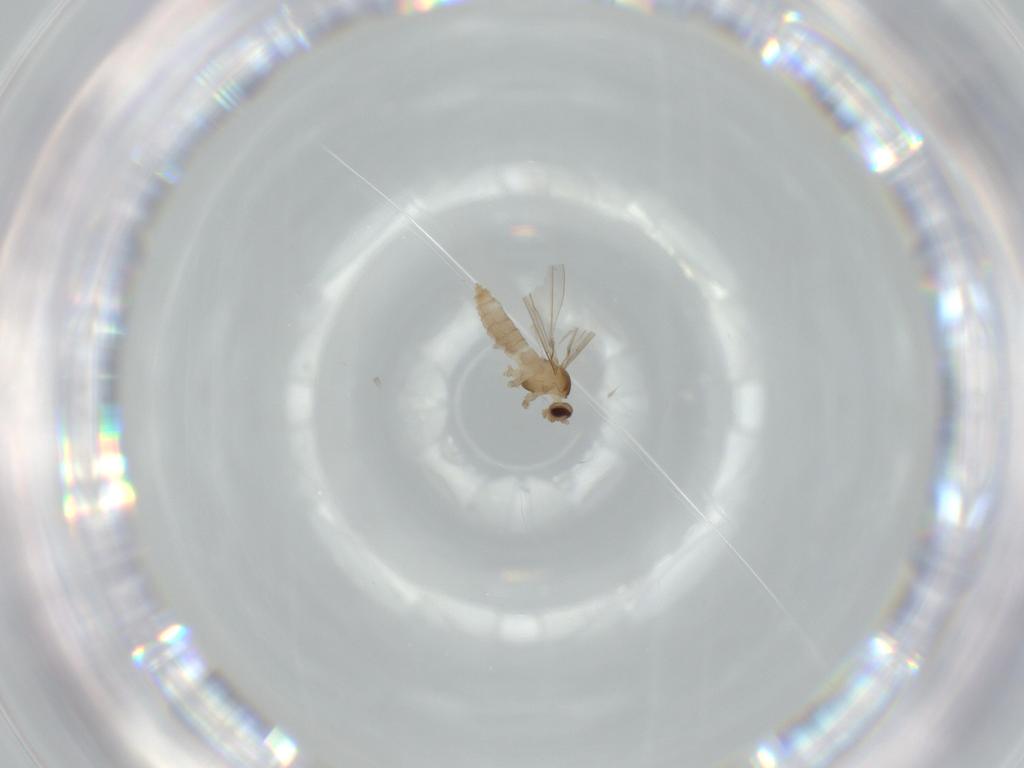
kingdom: Animalia
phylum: Arthropoda
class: Insecta
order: Diptera
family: Cecidomyiidae
